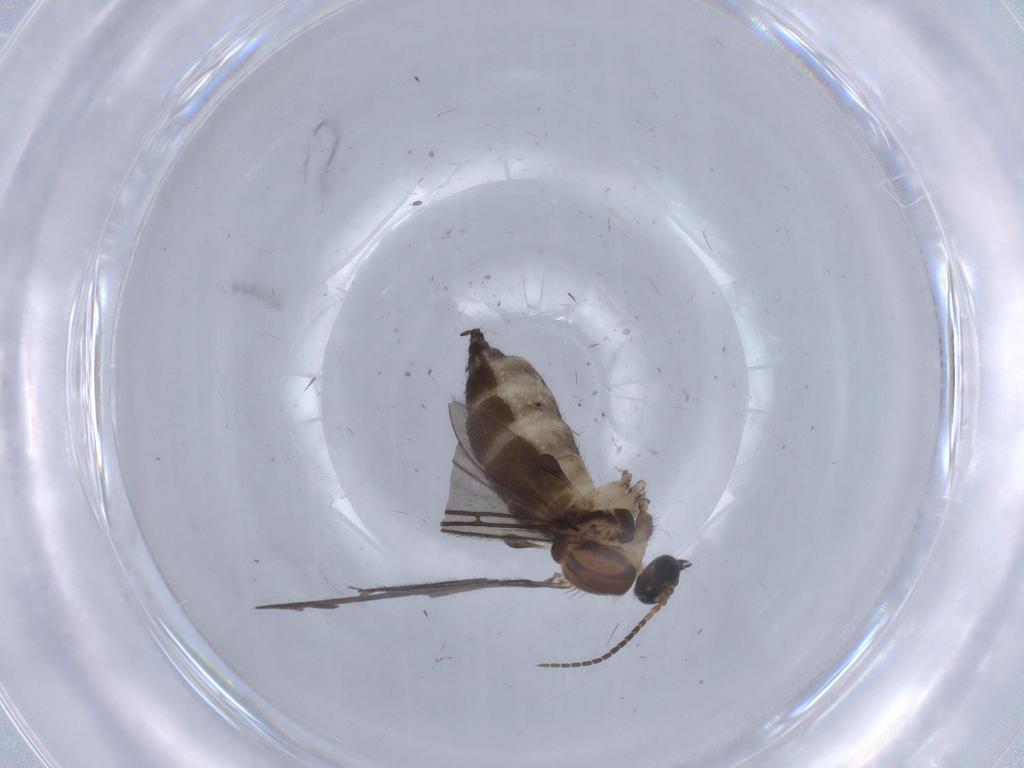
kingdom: Animalia
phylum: Arthropoda
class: Insecta
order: Diptera
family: Sciaridae
